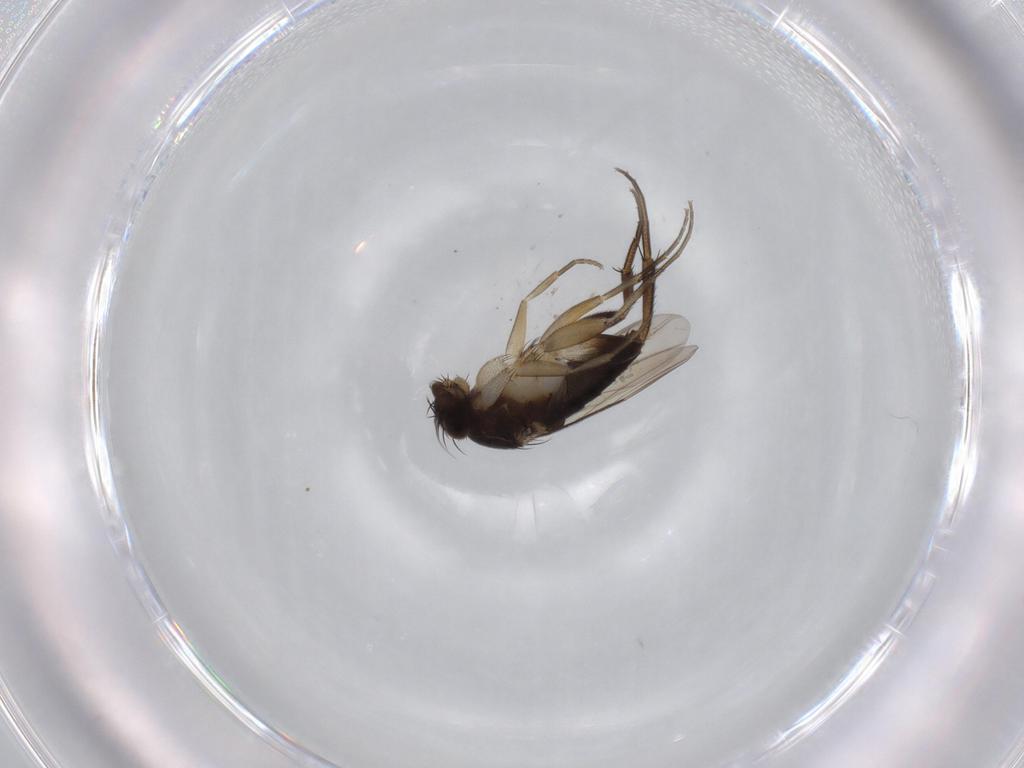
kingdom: Animalia
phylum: Arthropoda
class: Insecta
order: Diptera
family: Phoridae
